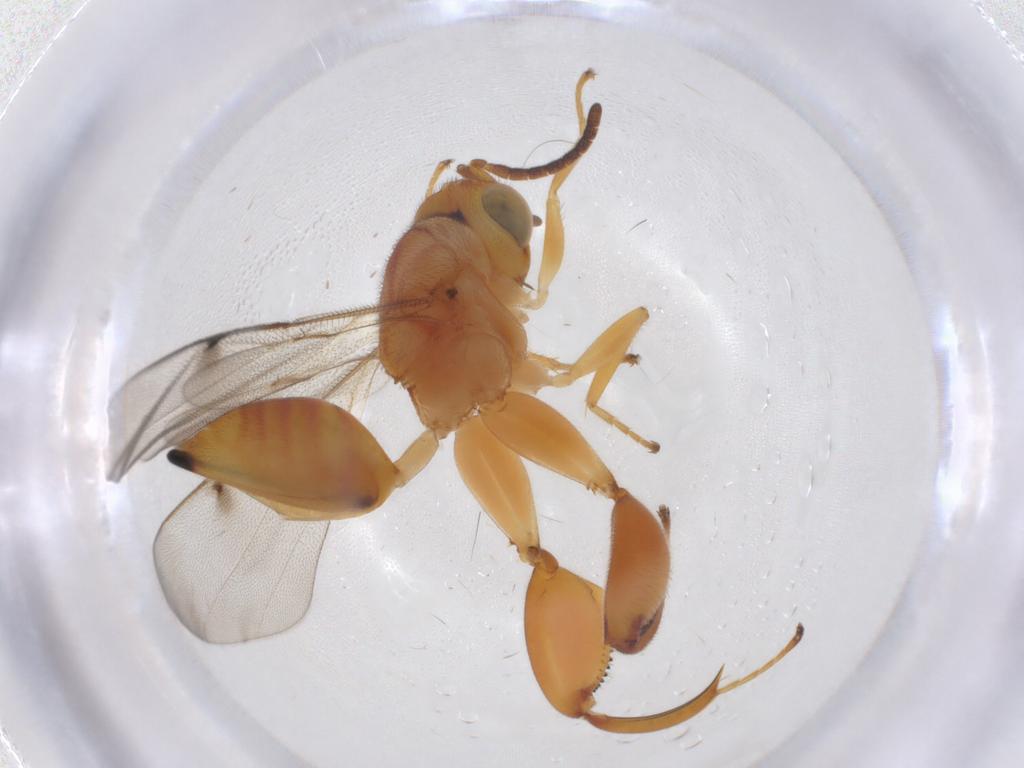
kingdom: Animalia
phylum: Arthropoda
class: Insecta
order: Hymenoptera
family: Chalcididae
